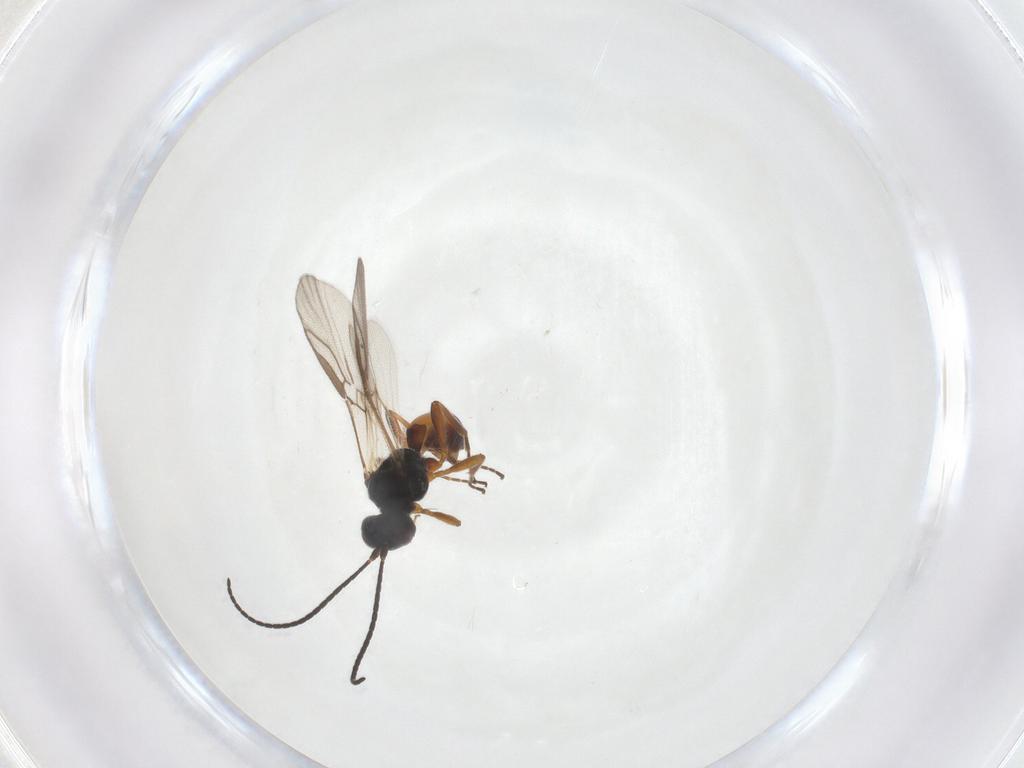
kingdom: Animalia
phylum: Arthropoda
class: Insecta
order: Hymenoptera
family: Braconidae
